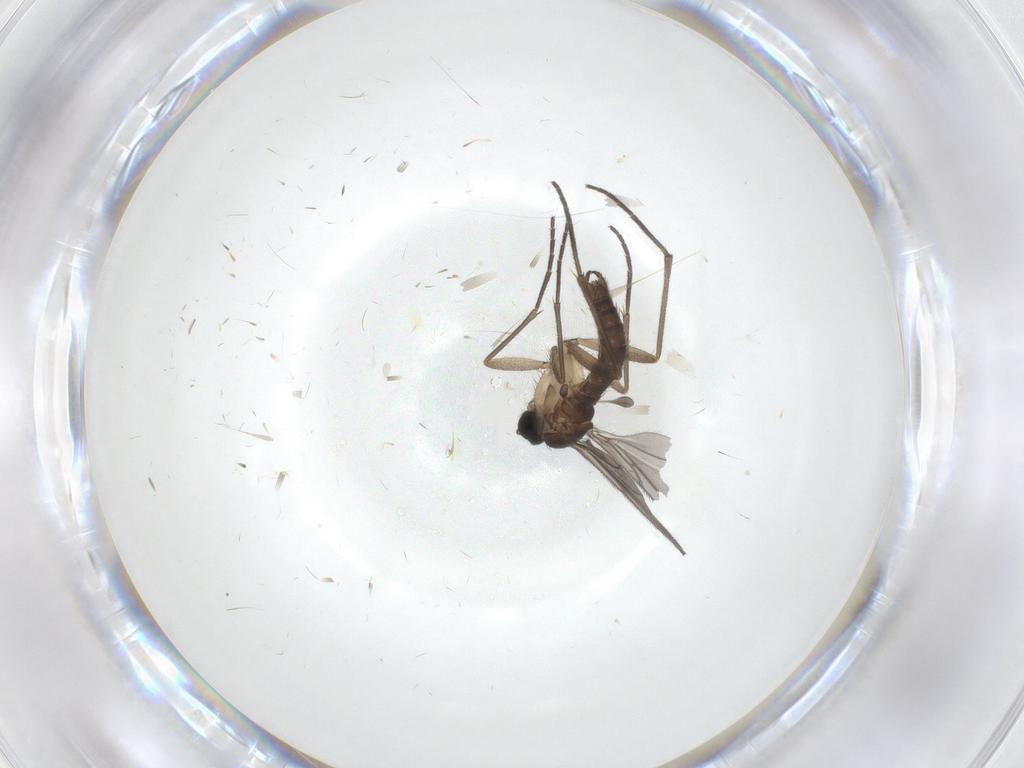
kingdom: Animalia
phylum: Arthropoda
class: Insecta
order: Diptera
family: Sciaridae
